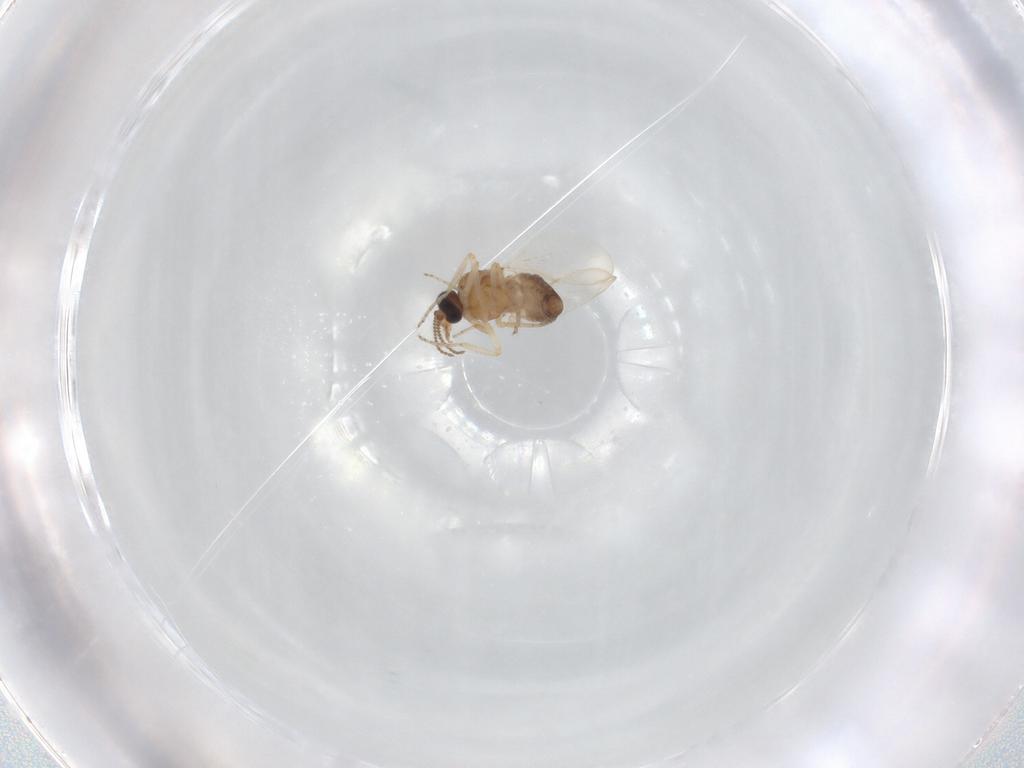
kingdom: Animalia
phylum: Arthropoda
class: Insecta
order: Diptera
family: Ceratopogonidae
